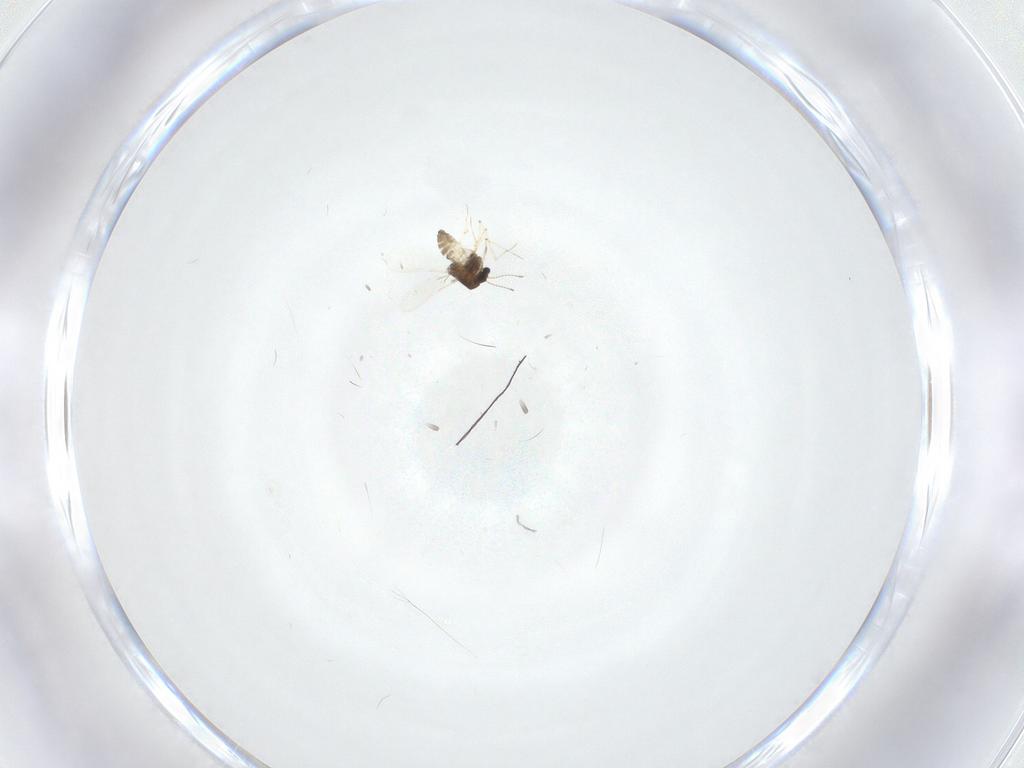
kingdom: Animalia
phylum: Arthropoda
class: Insecta
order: Diptera
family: Chironomidae
